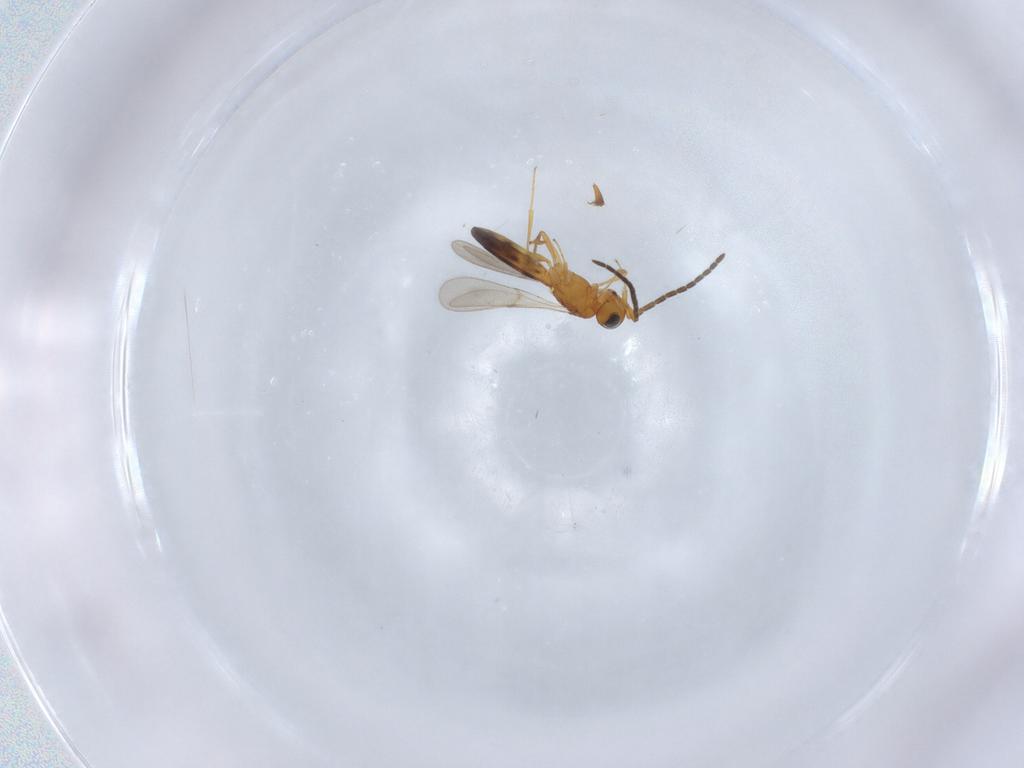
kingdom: Animalia
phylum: Arthropoda
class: Insecta
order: Hymenoptera
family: Formicidae
